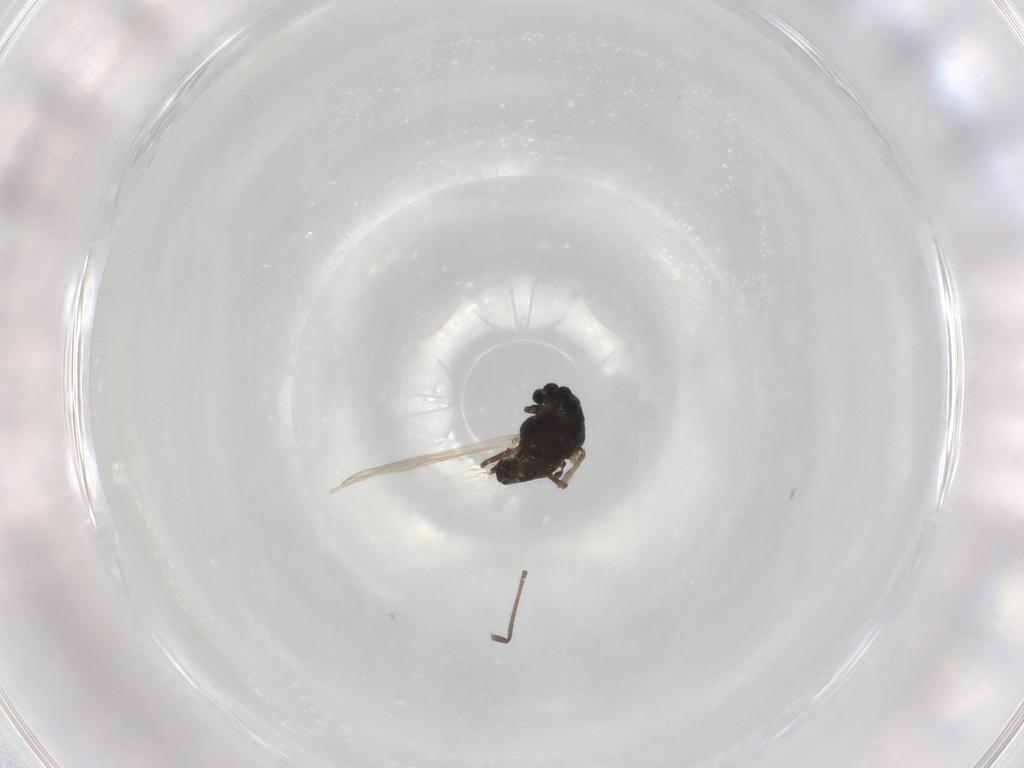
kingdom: Animalia
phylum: Arthropoda
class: Insecta
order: Diptera
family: Chironomidae
